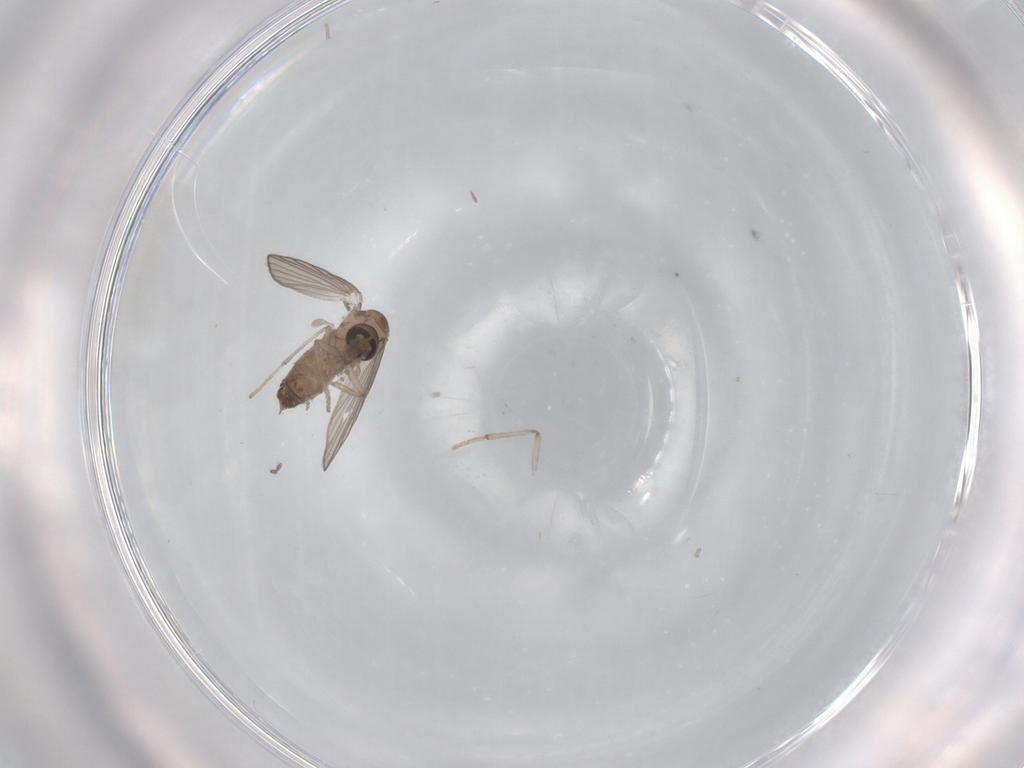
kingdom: Animalia
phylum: Arthropoda
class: Insecta
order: Diptera
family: Psychodidae
